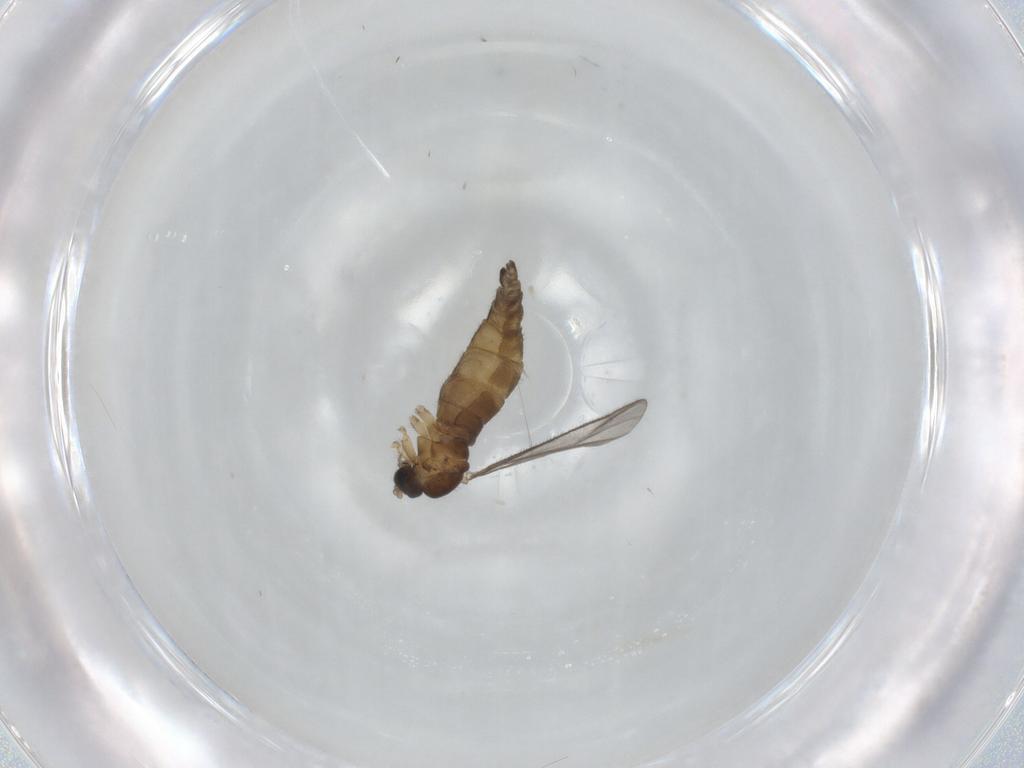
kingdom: Animalia
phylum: Arthropoda
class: Insecta
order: Diptera
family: Sciaridae
